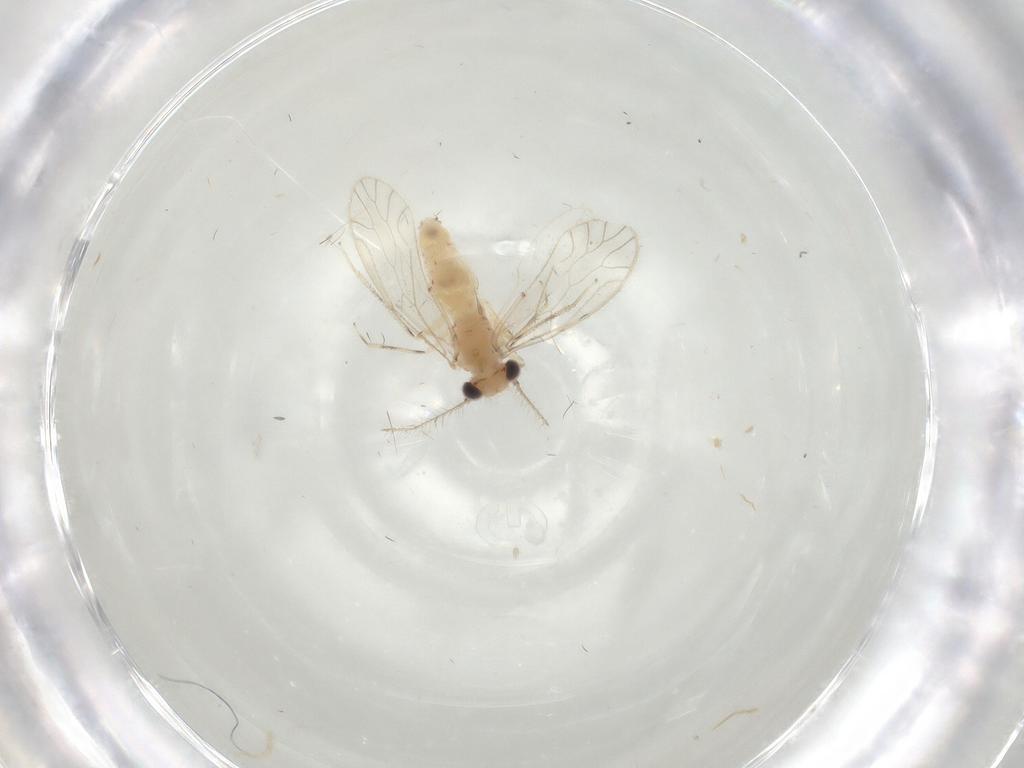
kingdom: Animalia
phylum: Arthropoda
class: Insecta
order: Psocodea
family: Caeciliusidae
